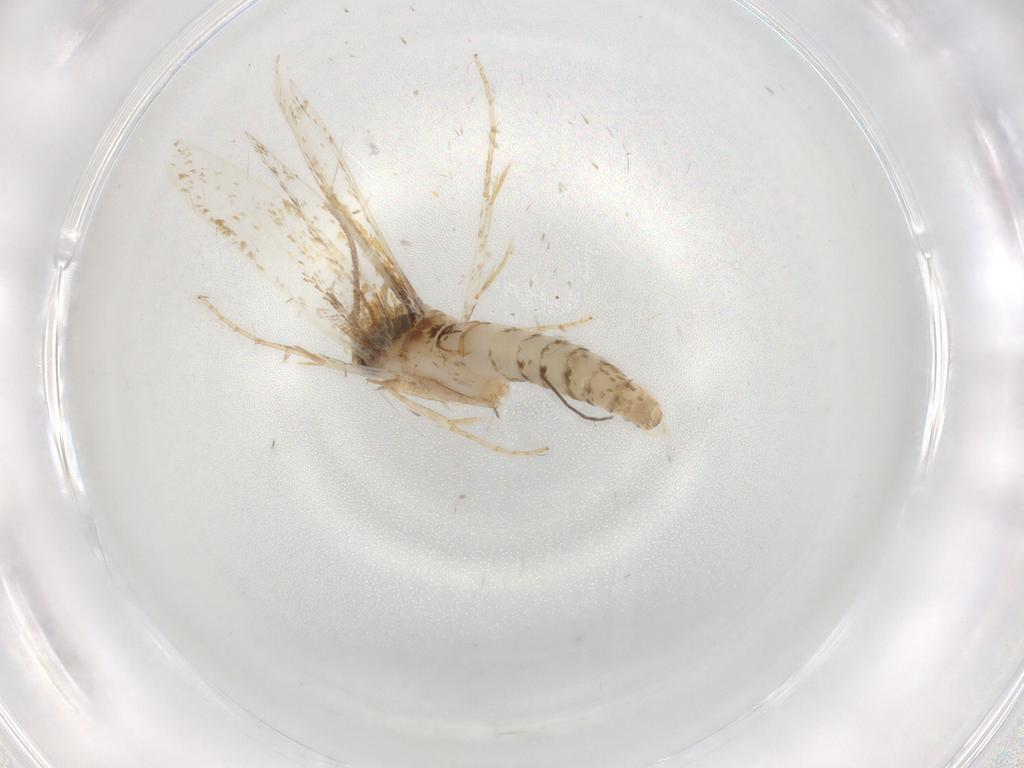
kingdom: Animalia
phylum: Arthropoda
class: Insecta
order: Lepidoptera
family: Tineidae
